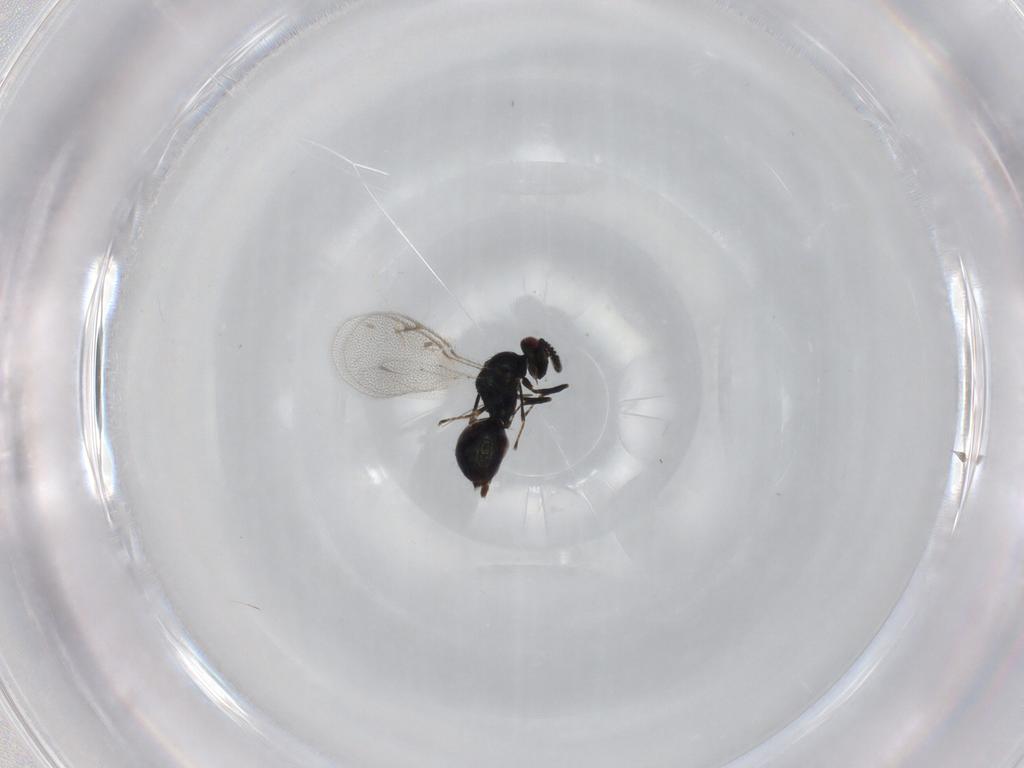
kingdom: Animalia
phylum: Arthropoda
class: Insecta
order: Hymenoptera
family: Pteromalidae
